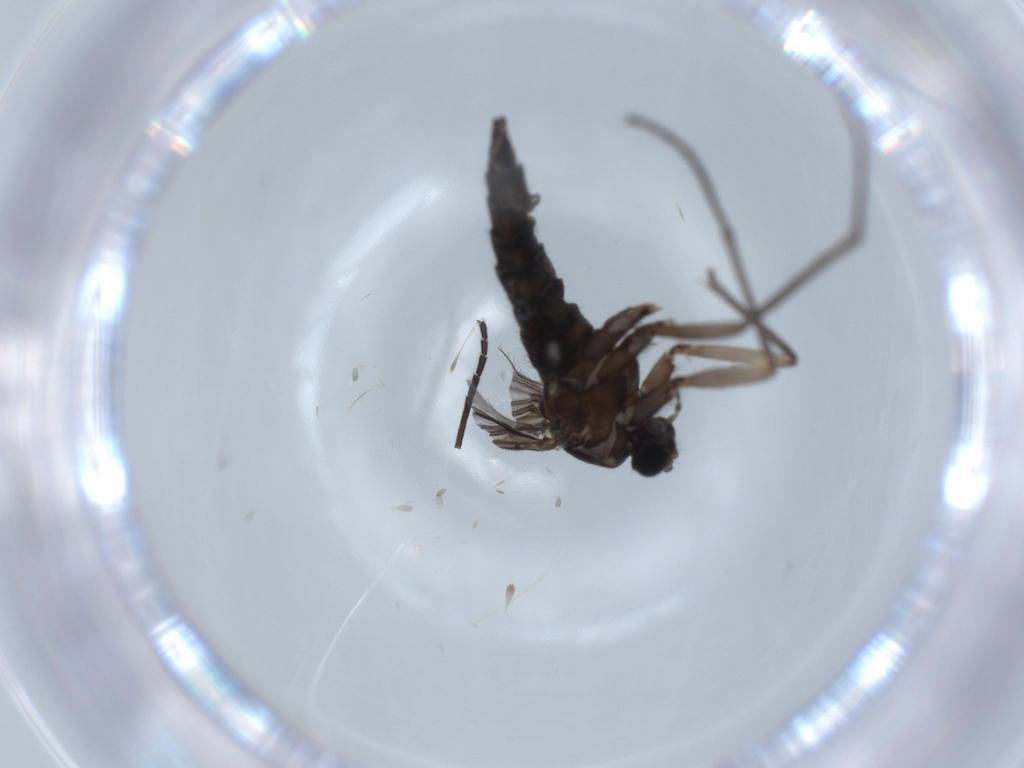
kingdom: Animalia
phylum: Arthropoda
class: Insecta
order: Diptera
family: Sciaridae
